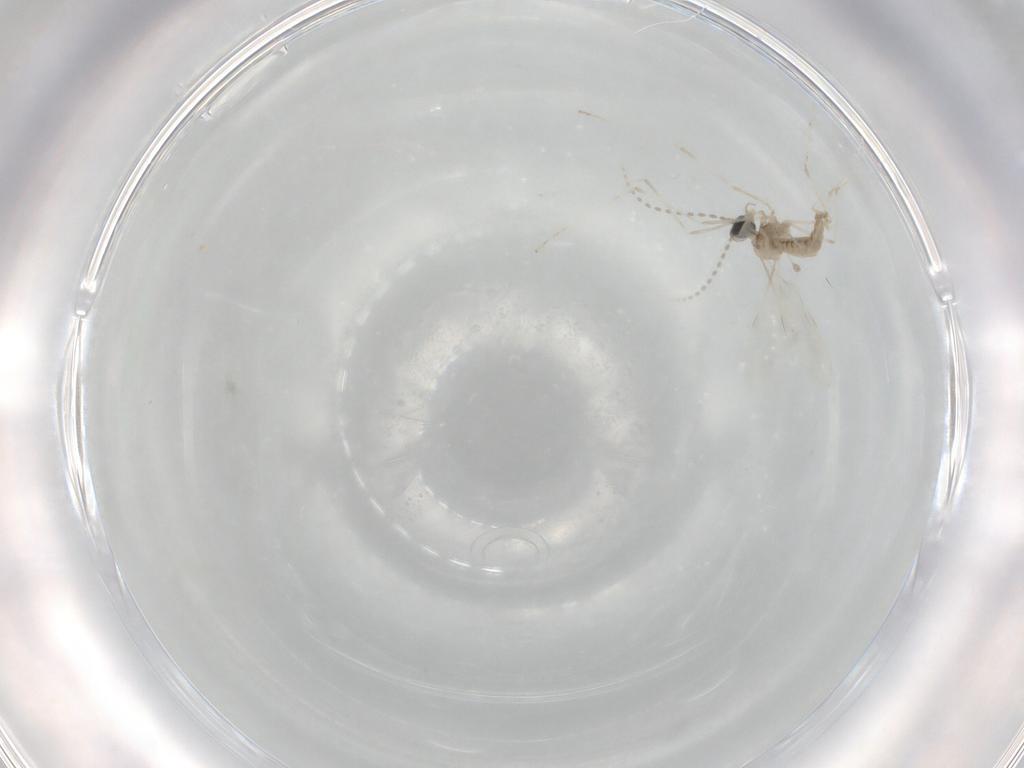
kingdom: Animalia
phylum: Arthropoda
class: Insecta
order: Diptera
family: Cecidomyiidae
